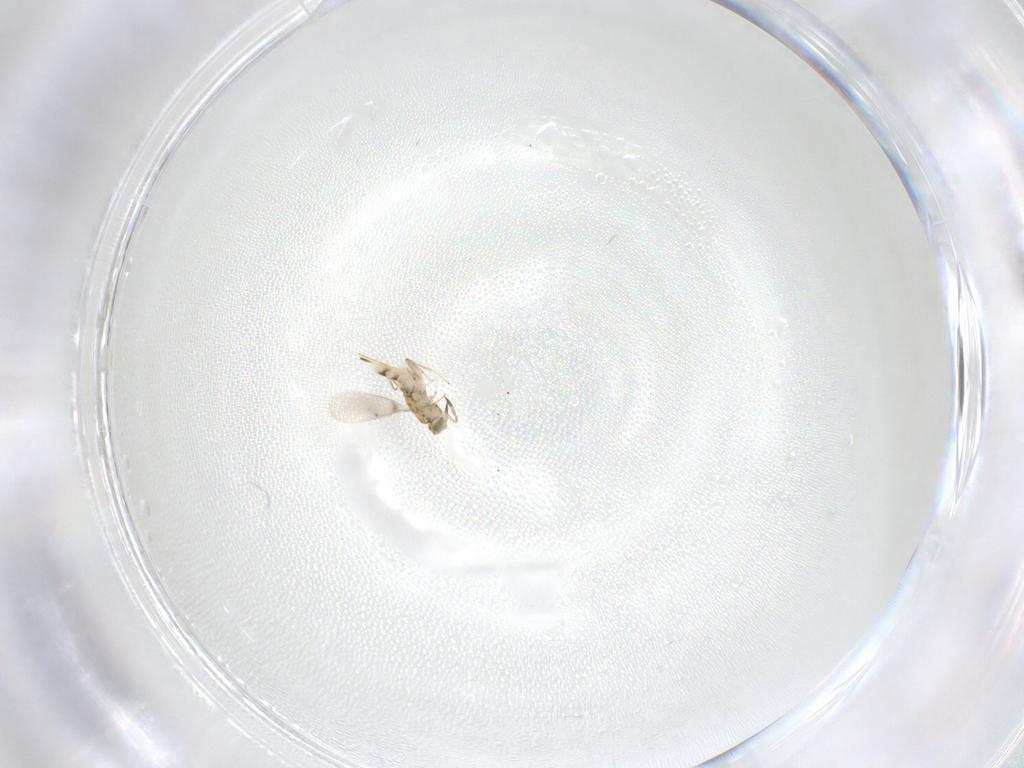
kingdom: Animalia
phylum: Arthropoda
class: Insecta
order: Hymenoptera
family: Aphelinidae
